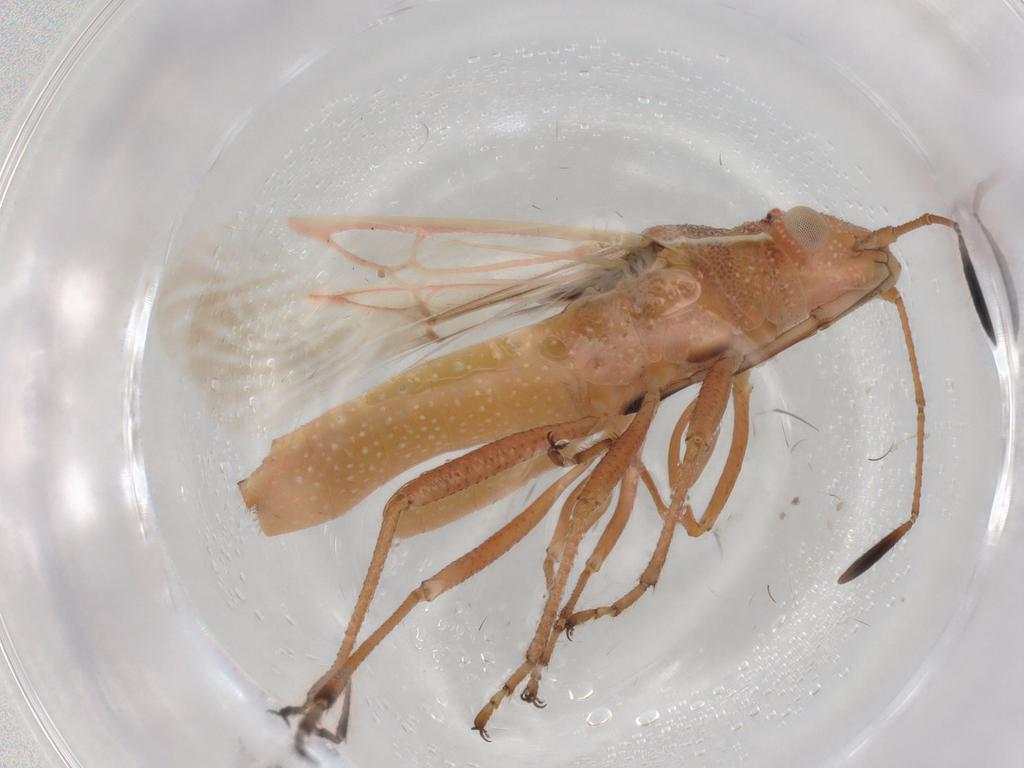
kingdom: Animalia
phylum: Arthropoda
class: Insecta
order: Hemiptera
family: Rhopalidae
